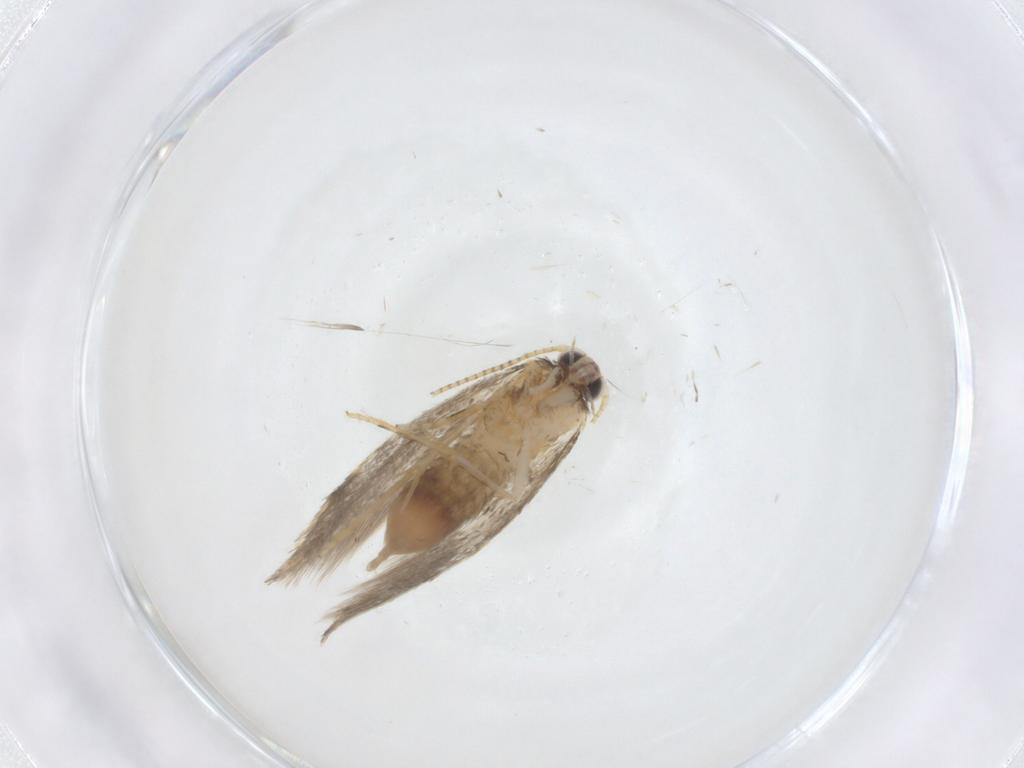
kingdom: Animalia
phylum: Arthropoda
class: Insecta
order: Lepidoptera
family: Tineidae
